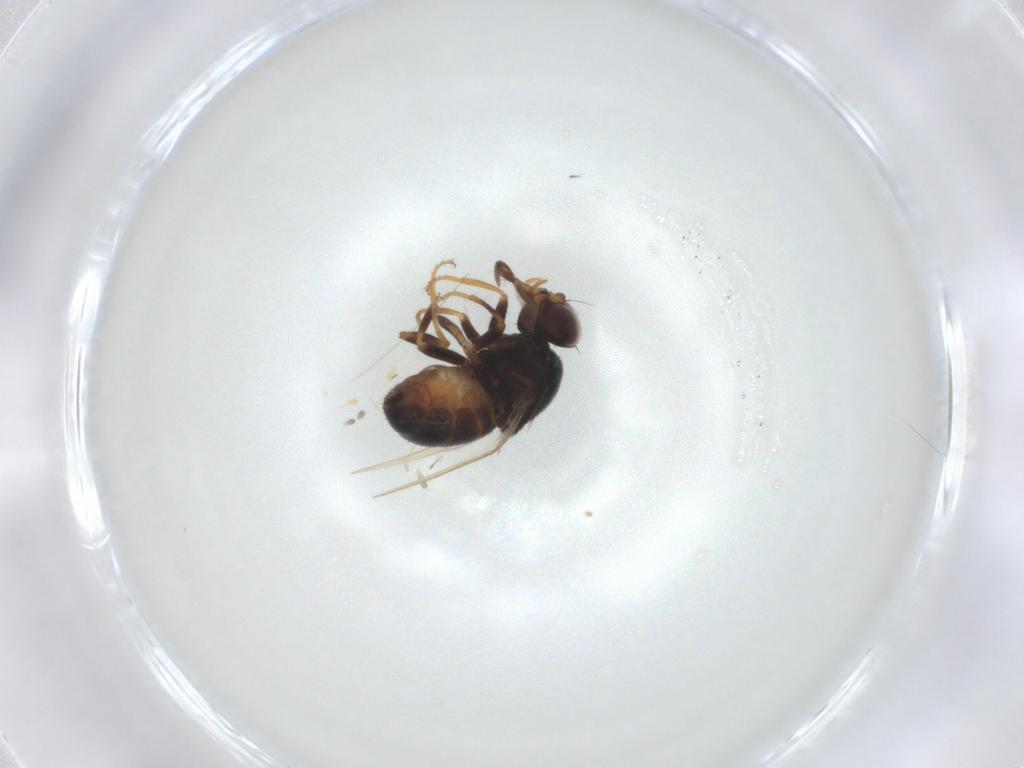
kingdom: Animalia
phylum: Arthropoda
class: Insecta
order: Diptera
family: Chloropidae
